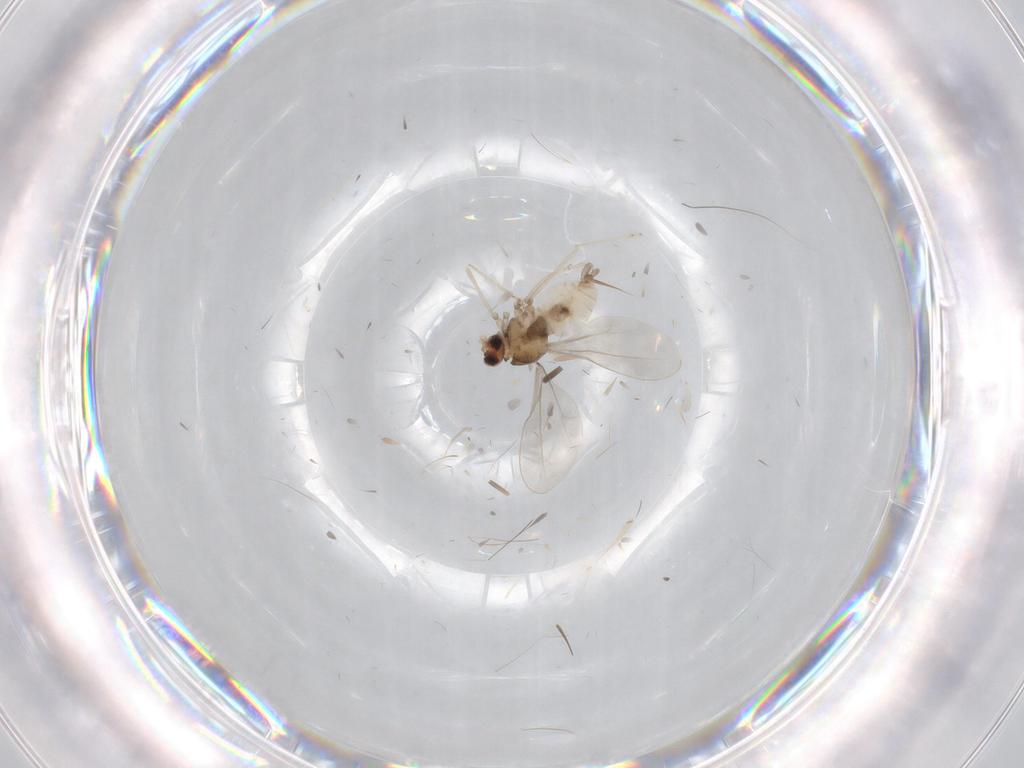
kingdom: Animalia
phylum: Arthropoda
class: Insecta
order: Diptera
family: Cecidomyiidae
